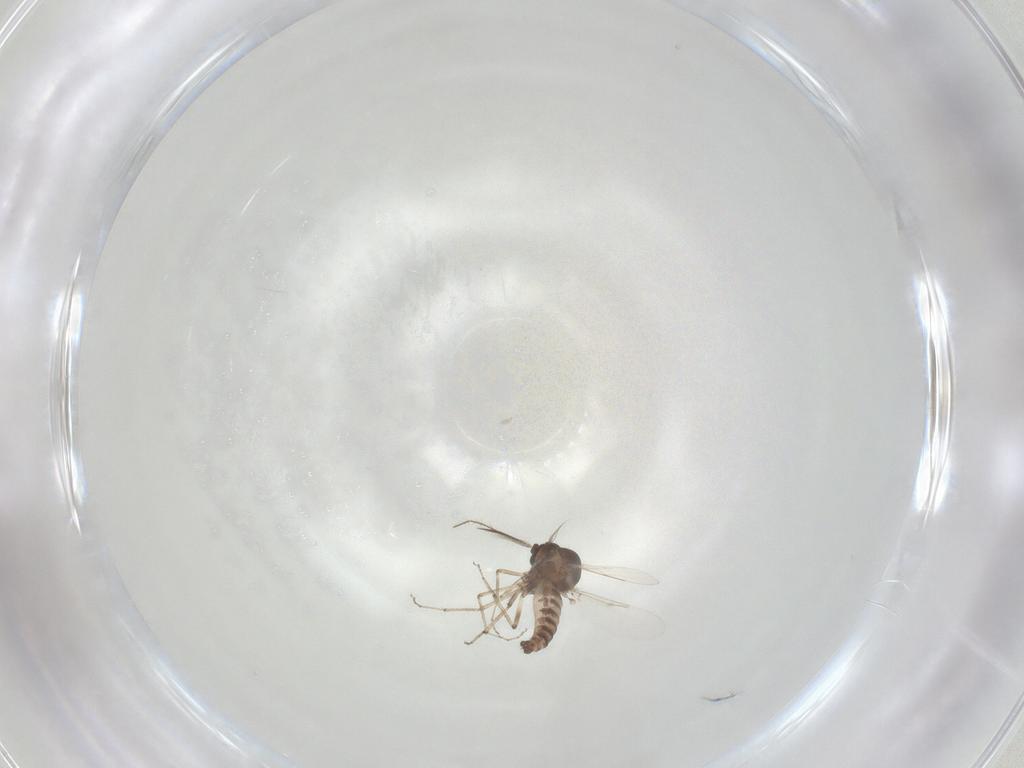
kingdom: Animalia
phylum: Arthropoda
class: Insecta
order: Diptera
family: Ceratopogonidae
